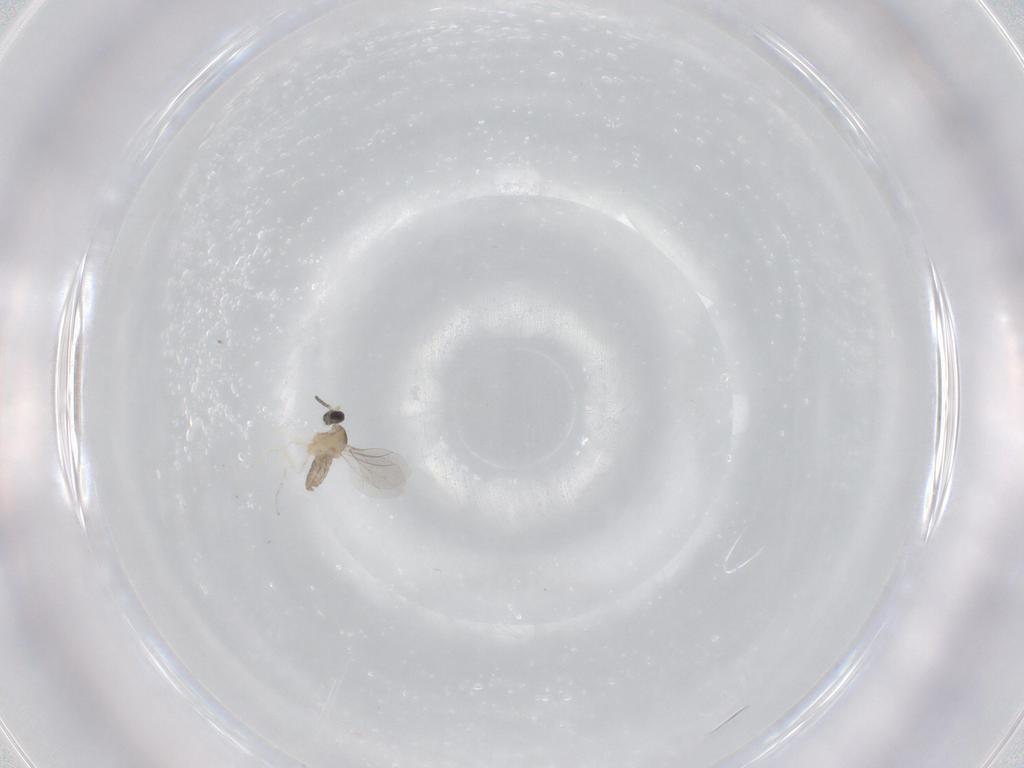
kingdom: Animalia
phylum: Arthropoda
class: Insecta
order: Diptera
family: Cecidomyiidae
